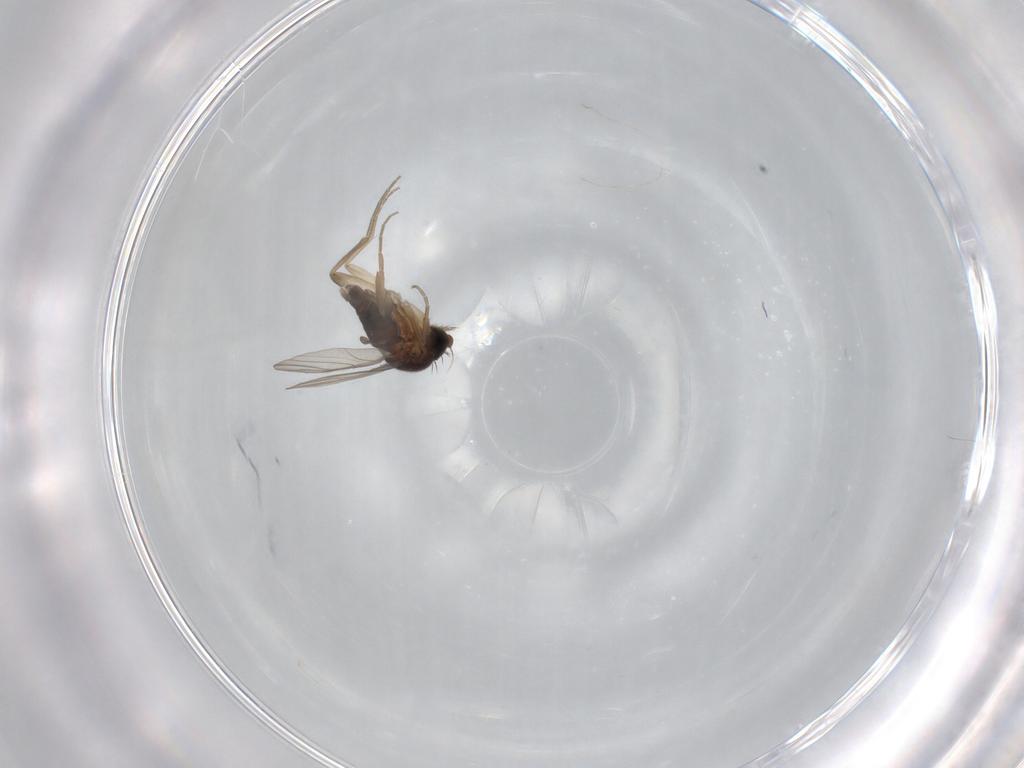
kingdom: Animalia
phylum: Arthropoda
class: Insecta
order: Diptera
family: Phoridae
